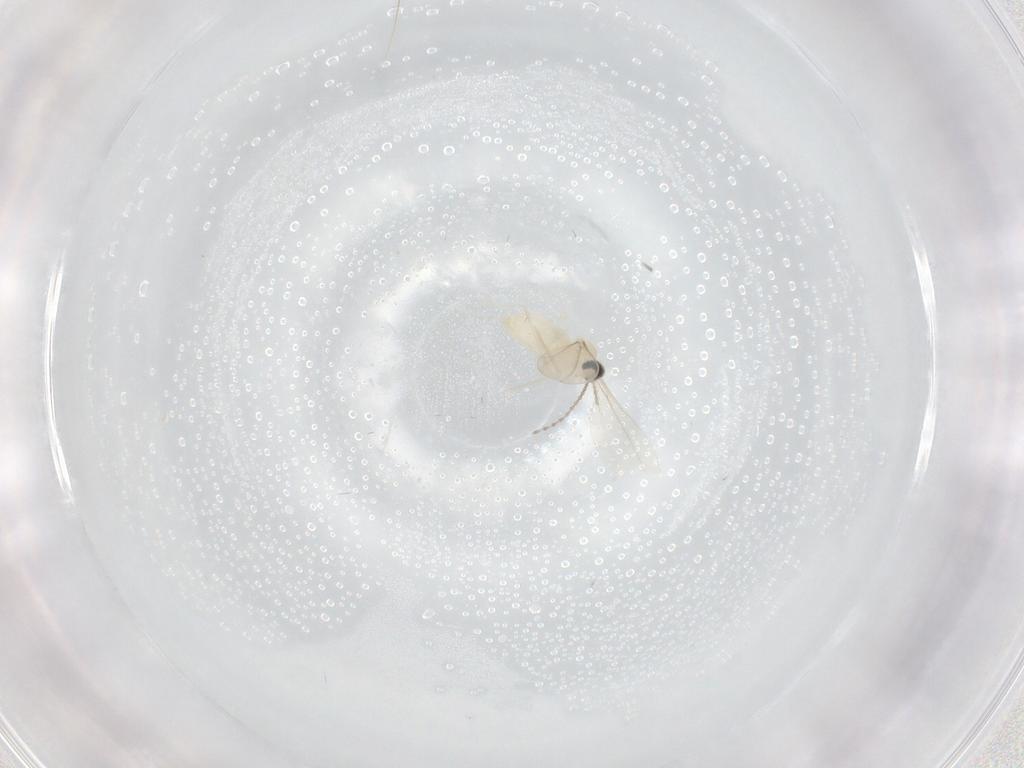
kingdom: Animalia
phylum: Arthropoda
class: Insecta
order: Diptera
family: Cecidomyiidae
